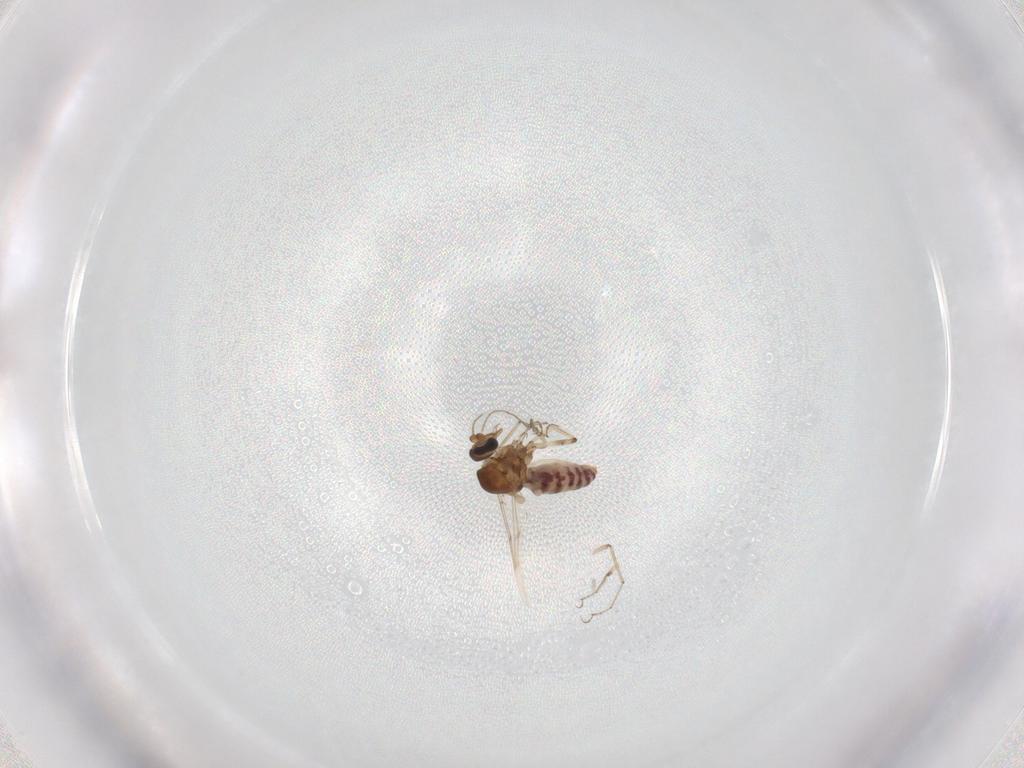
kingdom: Animalia
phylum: Arthropoda
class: Insecta
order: Diptera
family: Ceratopogonidae
